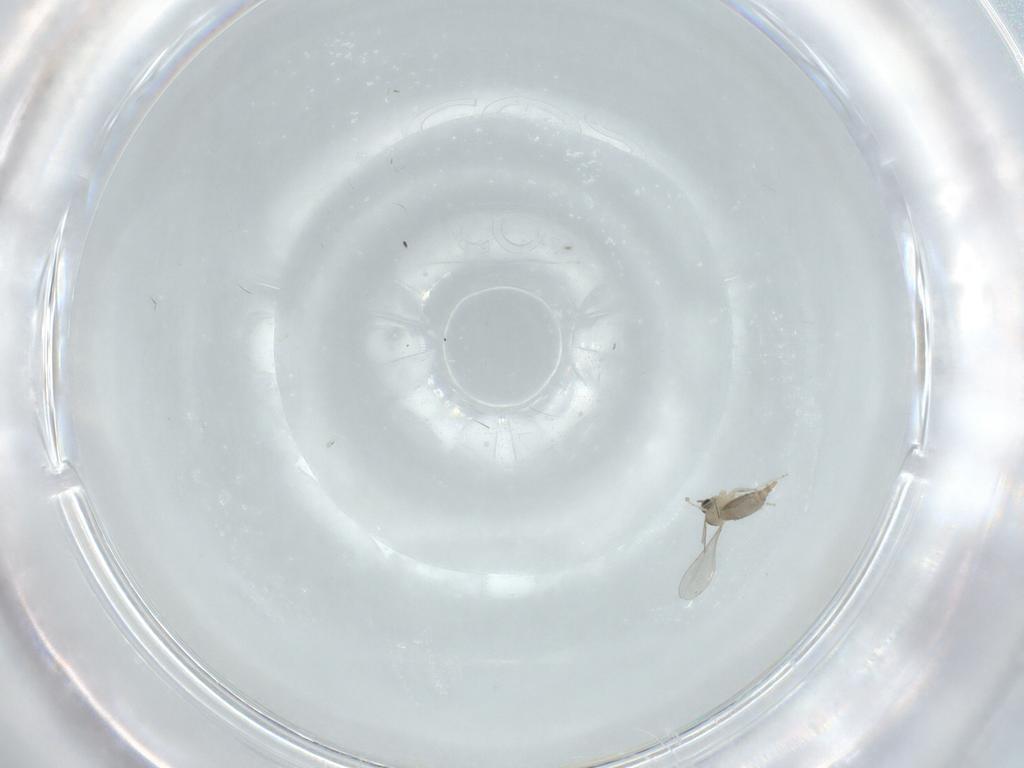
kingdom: Animalia
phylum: Arthropoda
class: Insecta
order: Diptera
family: Cecidomyiidae
